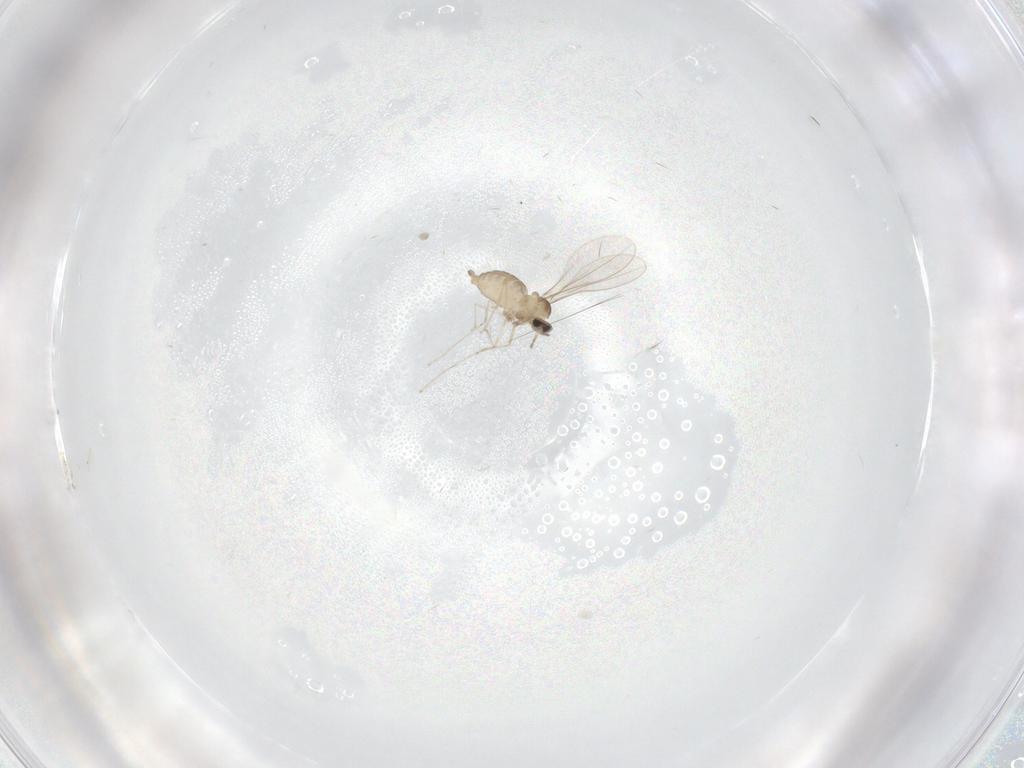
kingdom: Animalia
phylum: Arthropoda
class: Insecta
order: Diptera
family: Cecidomyiidae
